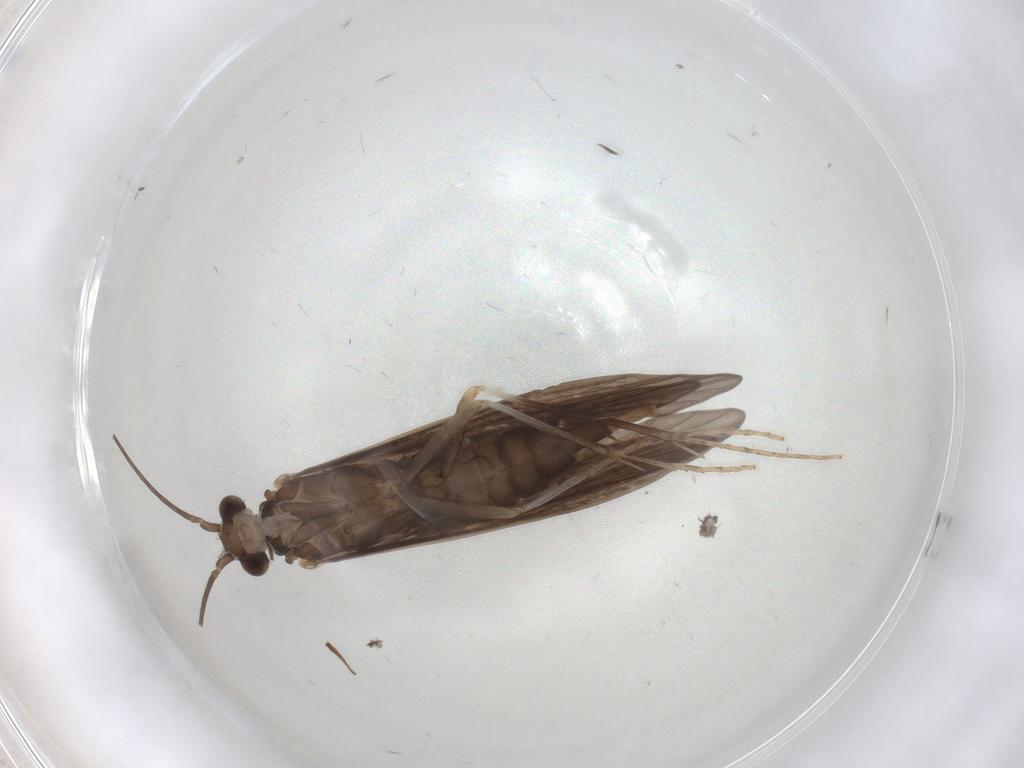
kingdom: Animalia
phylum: Arthropoda
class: Insecta
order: Trichoptera
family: Xiphocentronidae
